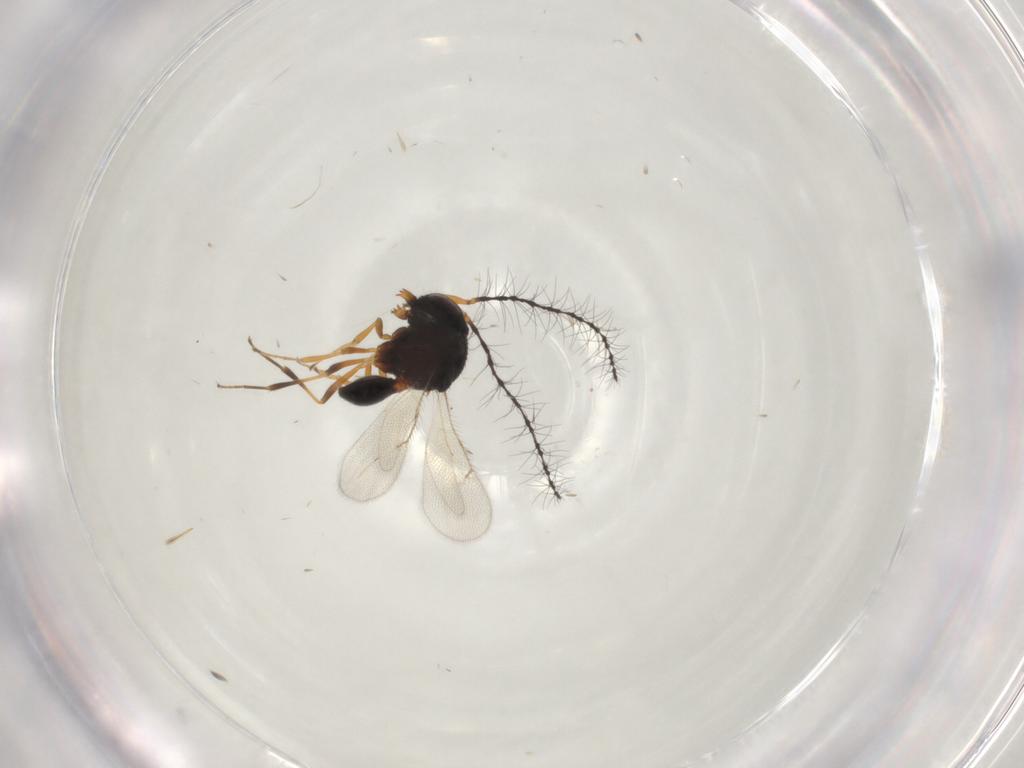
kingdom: Animalia
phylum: Arthropoda
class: Insecta
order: Hymenoptera
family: Scelionidae
